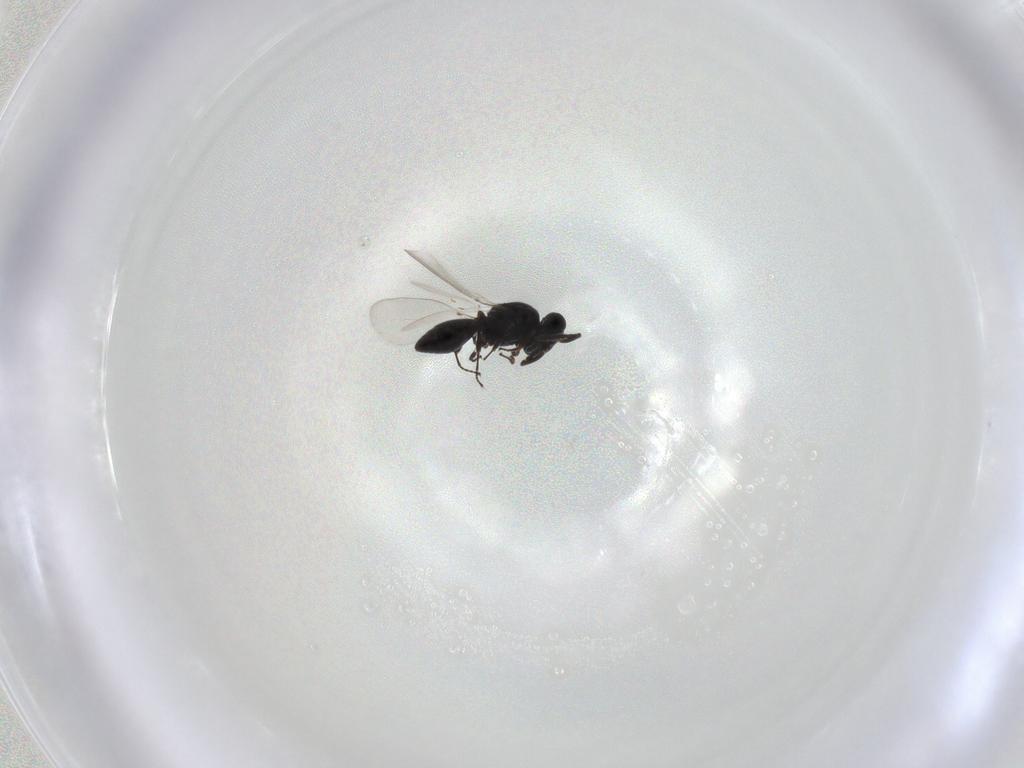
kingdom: Animalia
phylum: Arthropoda
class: Insecta
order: Hymenoptera
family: Platygastridae
